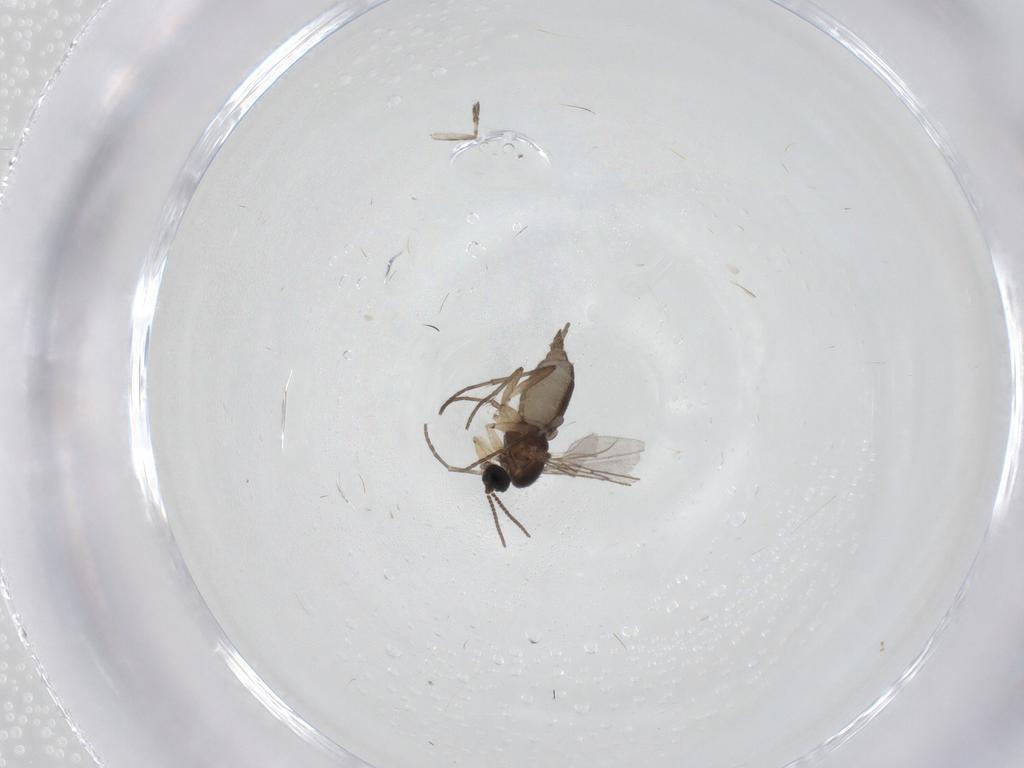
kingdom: Animalia
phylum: Arthropoda
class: Insecta
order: Diptera
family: Sciaridae
